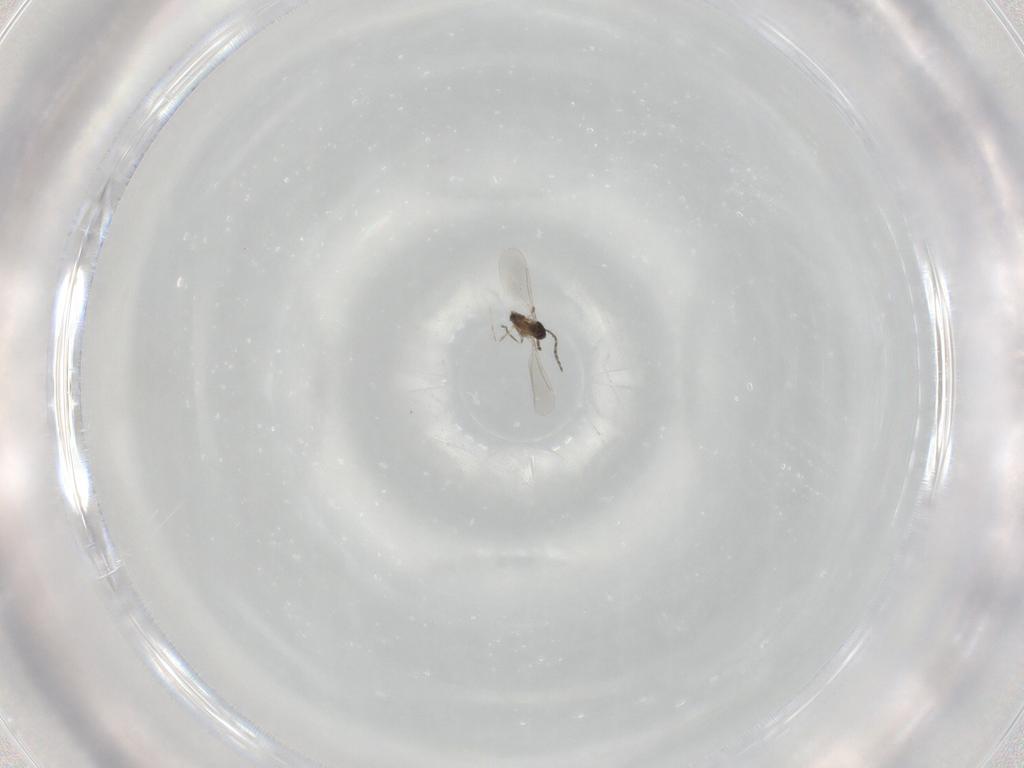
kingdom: Animalia
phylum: Arthropoda
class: Insecta
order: Diptera
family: Cecidomyiidae
